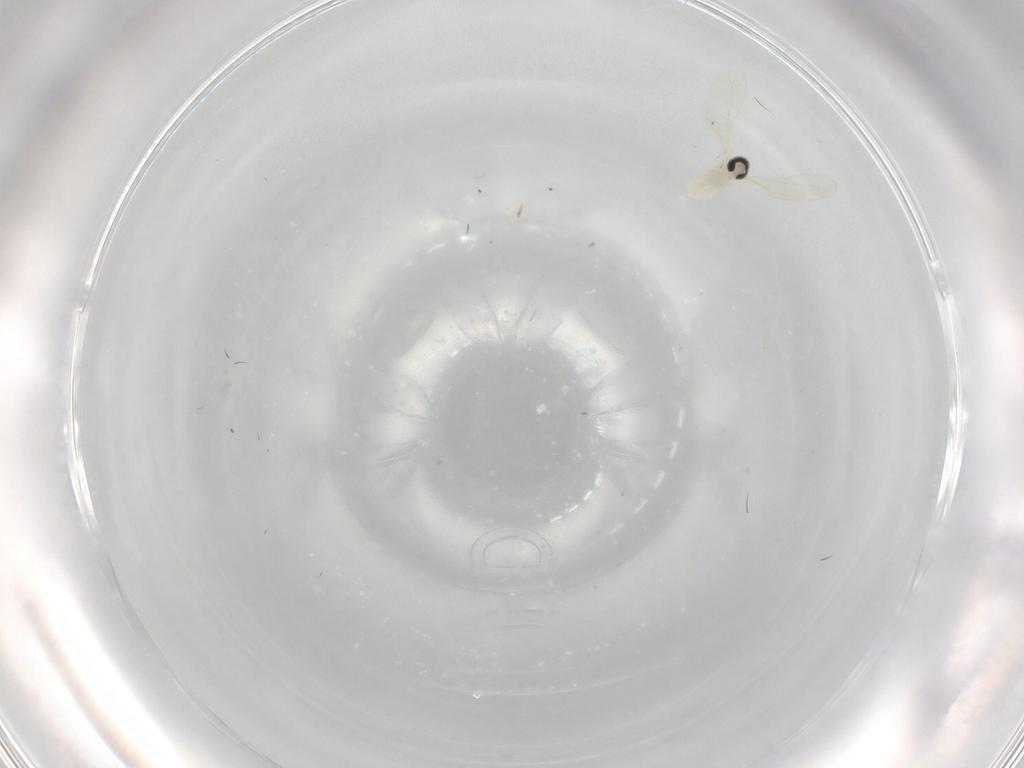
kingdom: Animalia
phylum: Arthropoda
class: Insecta
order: Diptera
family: Cecidomyiidae
